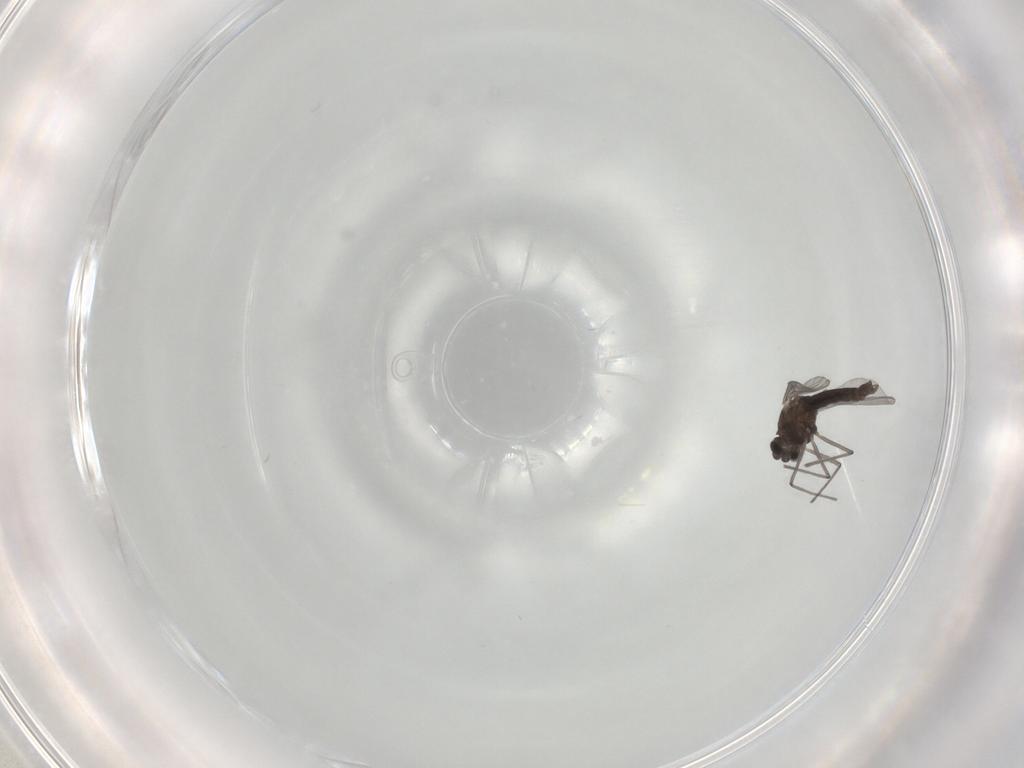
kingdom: Animalia
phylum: Arthropoda
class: Insecta
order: Diptera
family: Chironomidae
